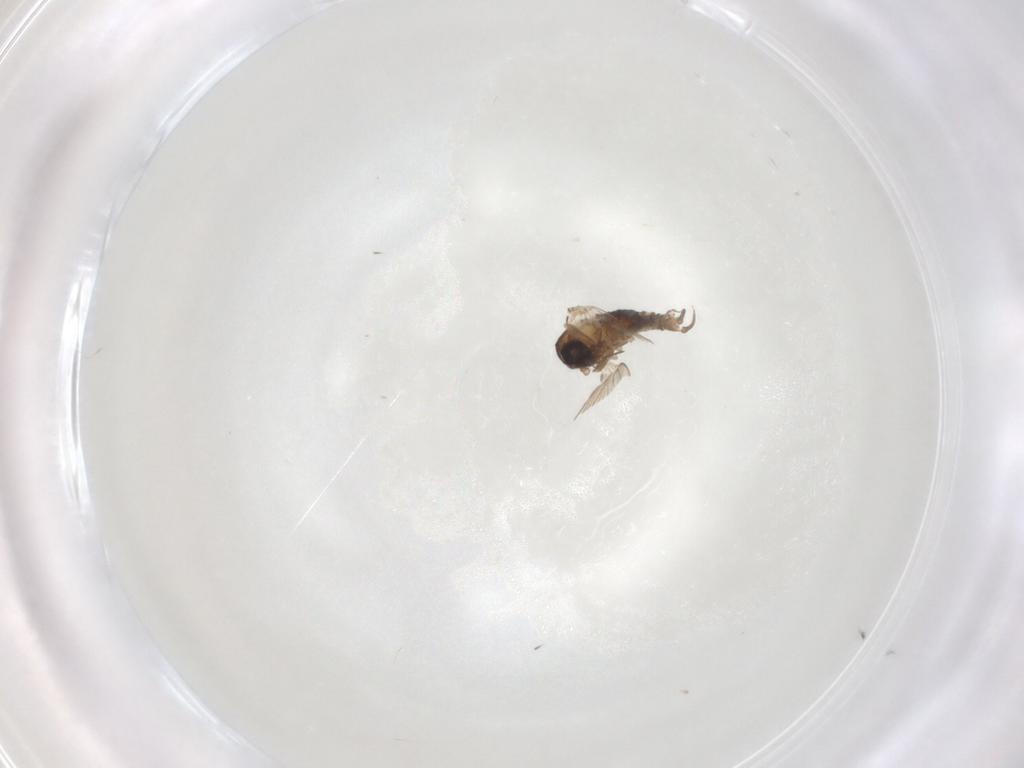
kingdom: Animalia
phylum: Arthropoda
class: Insecta
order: Diptera
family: Psychodidae
